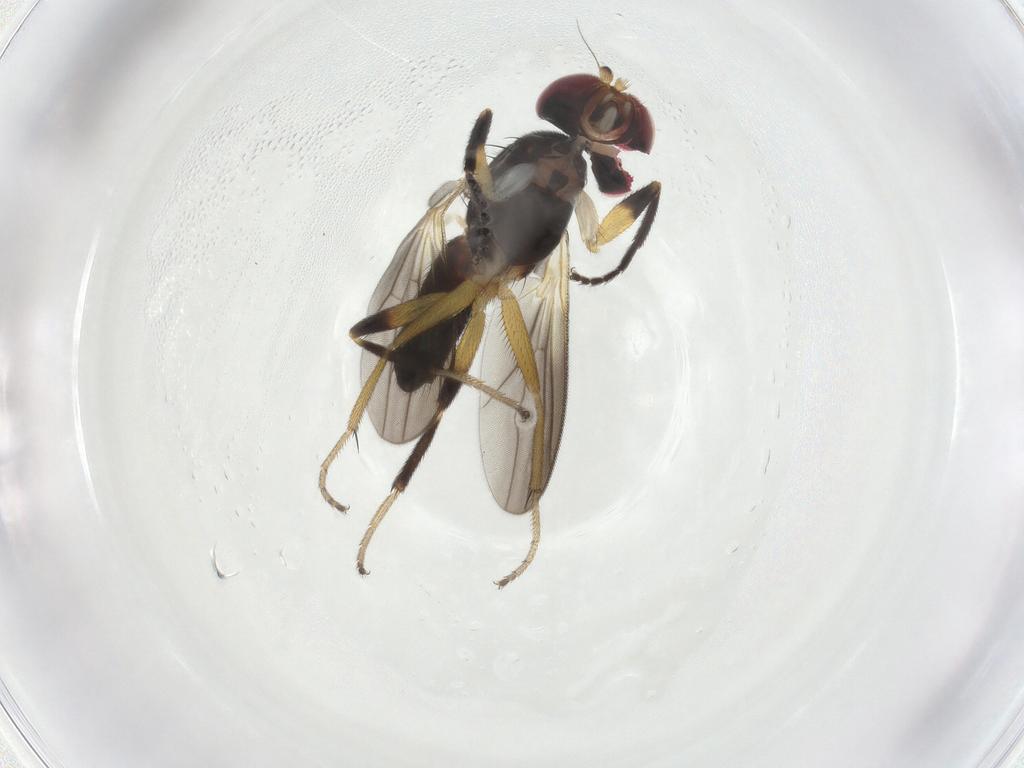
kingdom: Animalia
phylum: Arthropoda
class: Insecta
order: Diptera
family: Clusiidae
